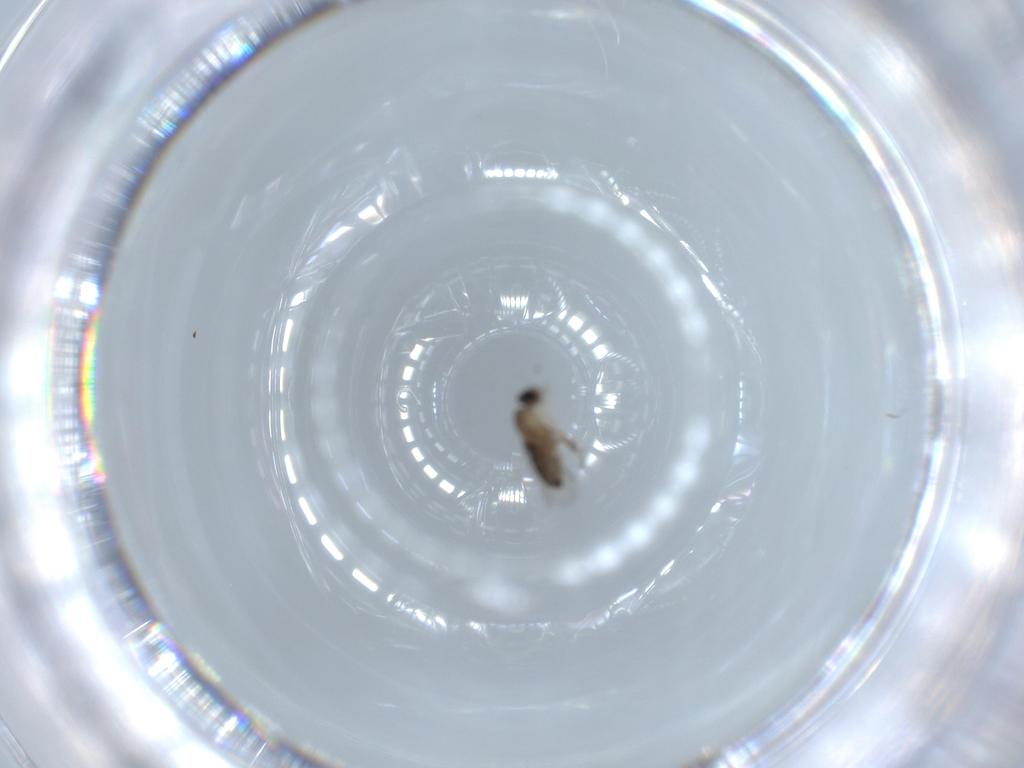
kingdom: Animalia
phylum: Arthropoda
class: Insecta
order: Diptera
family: Phoridae
